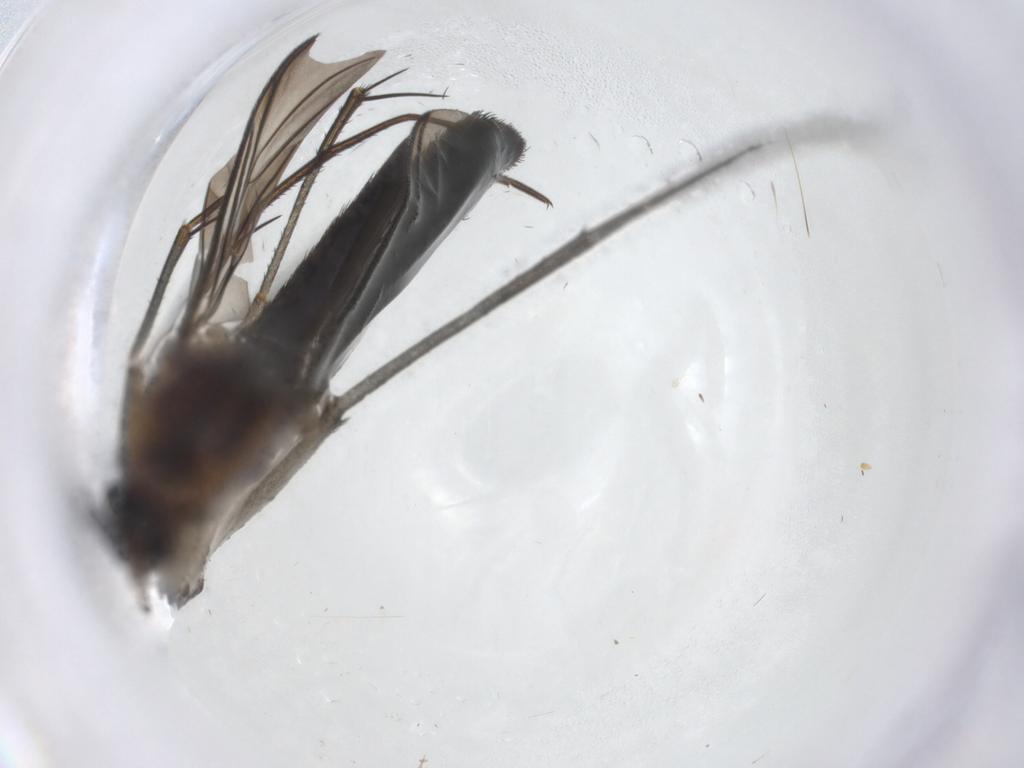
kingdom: Animalia
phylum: Arthropoda
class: Insecta
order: Diptera
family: Keroplatidae
